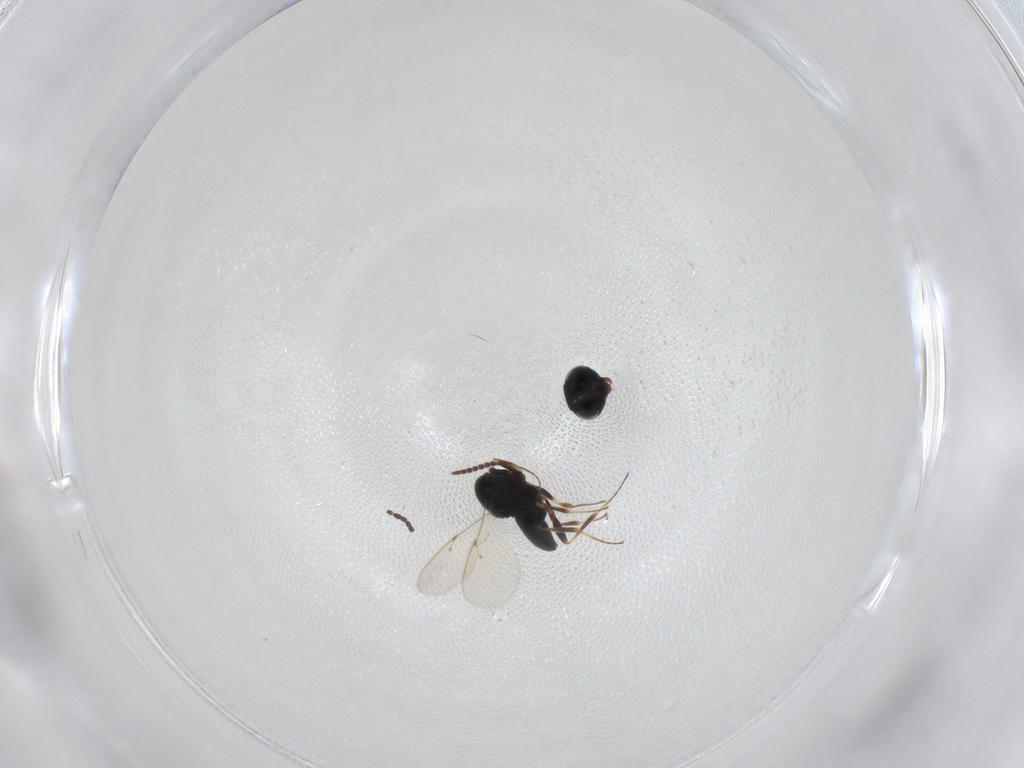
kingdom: Animalia
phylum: Arthropoda
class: Insecta
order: Hymenoptera
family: Scelionidae
